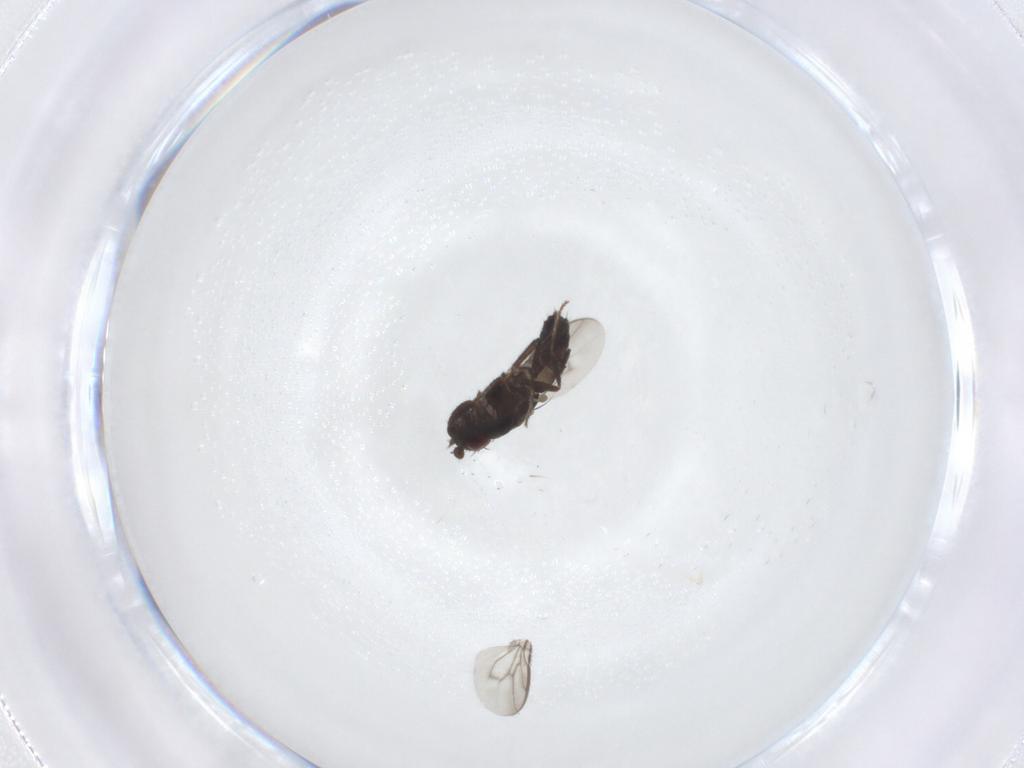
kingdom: Animalia
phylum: Arthropoda
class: Insecta
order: Diptera
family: Sphaeroceridae
